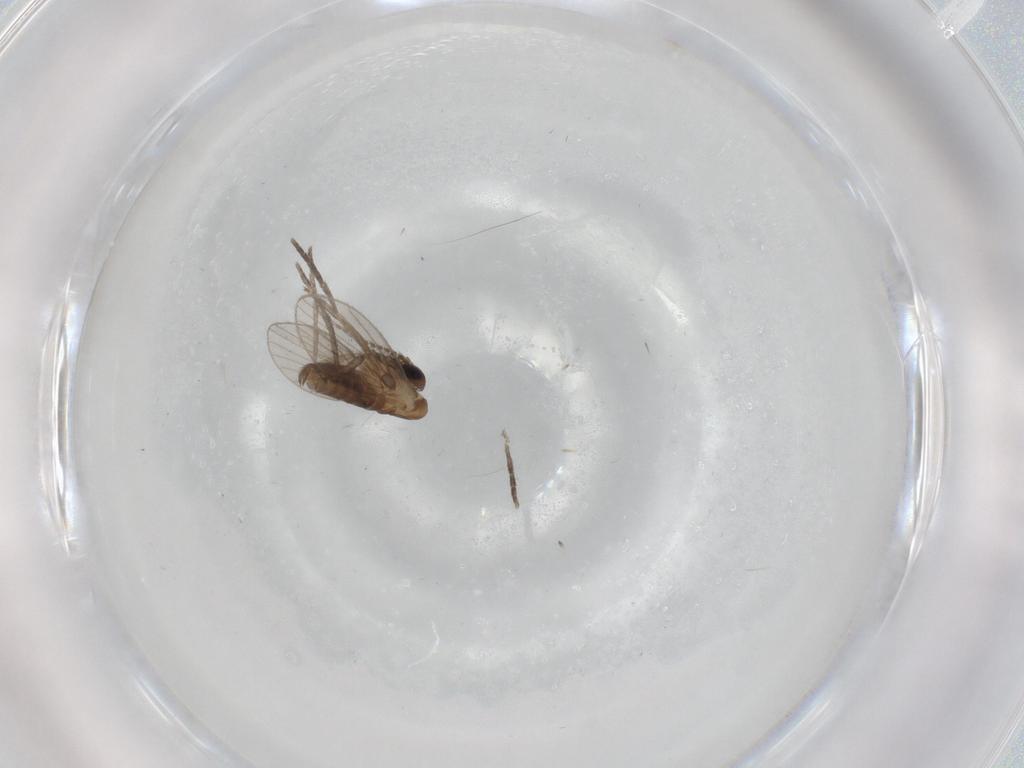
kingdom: Animalia
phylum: Arthropoda
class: Insecta
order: Diptera
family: Psychodidae
